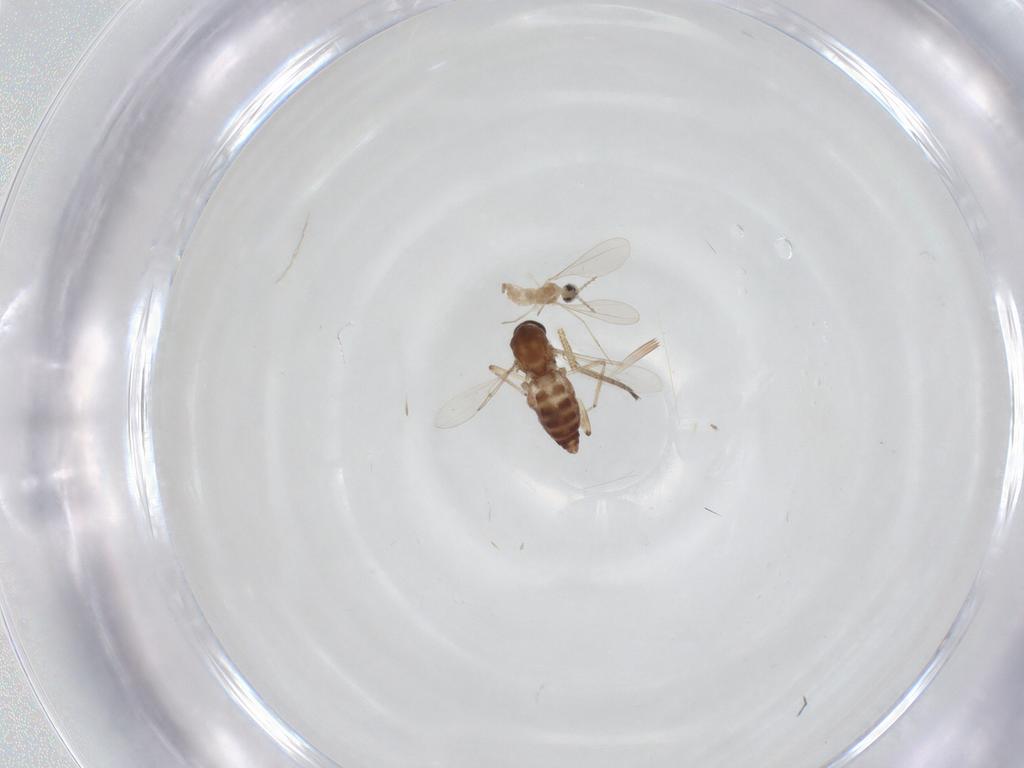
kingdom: Animalia
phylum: Arthropoda
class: Insecta
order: Diptera
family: Ceratopogonidae
